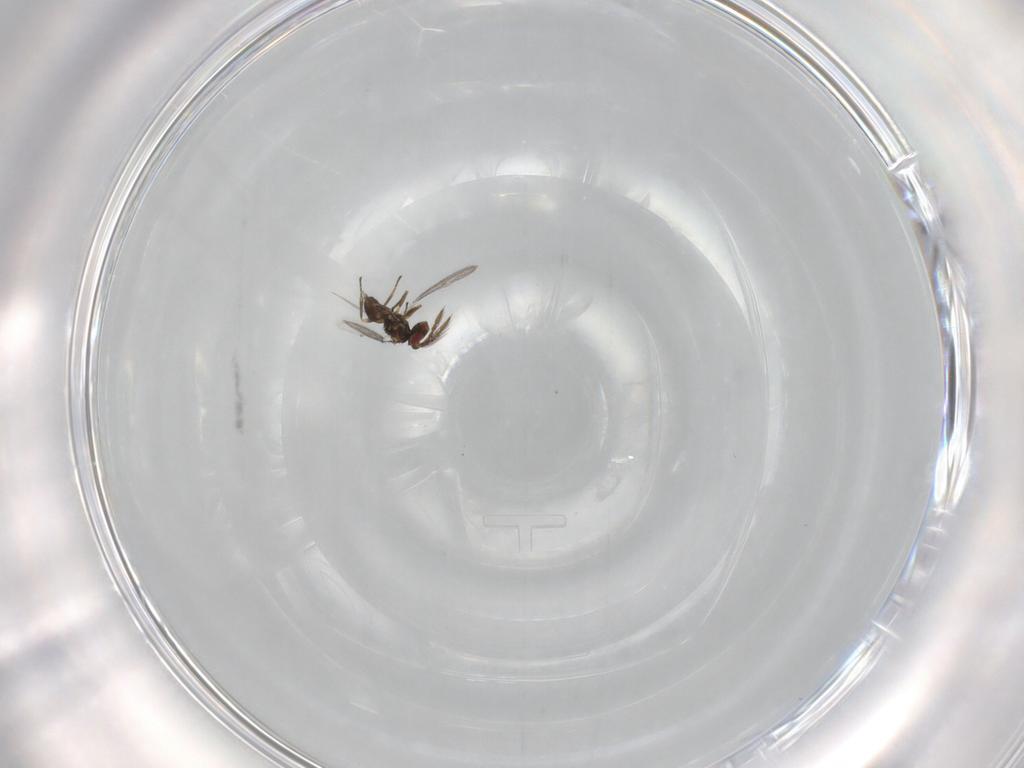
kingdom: Animalia
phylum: Arthropoda
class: Insecta
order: Hymenoptera
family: Eulophidae
